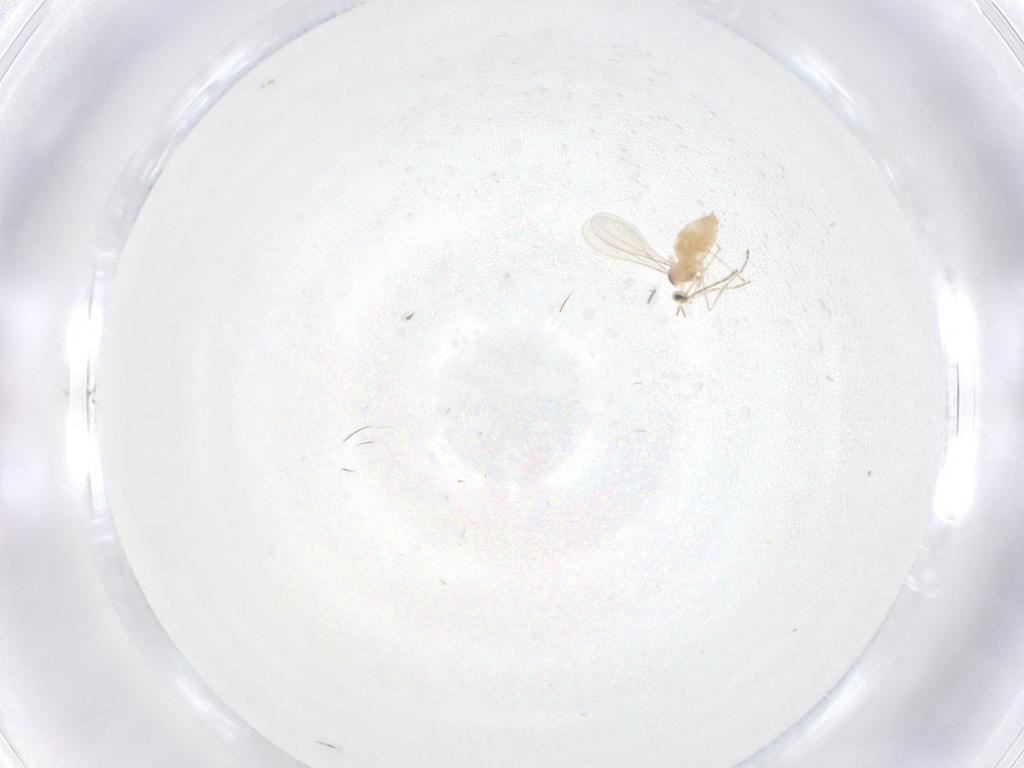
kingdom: Animalia
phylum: Arthropoda
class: Insecta
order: Diptera
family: Cecidomyiidae
